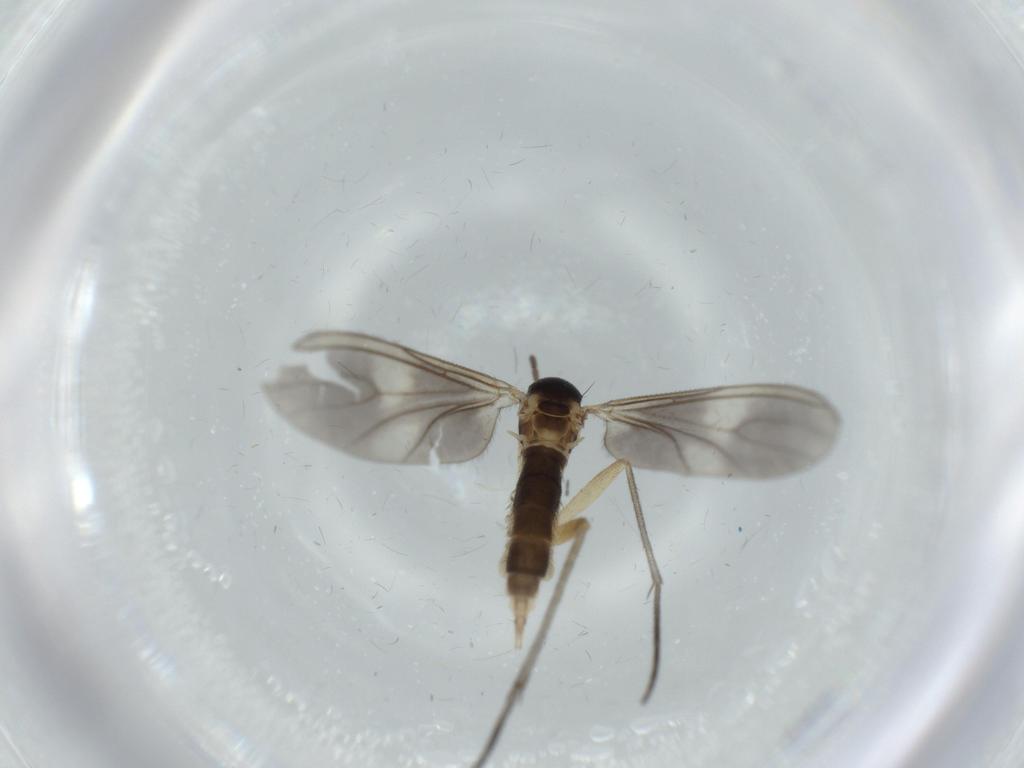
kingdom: Animalia
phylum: Arthropoda
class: Insecta
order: Diptera
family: Sciaridae
